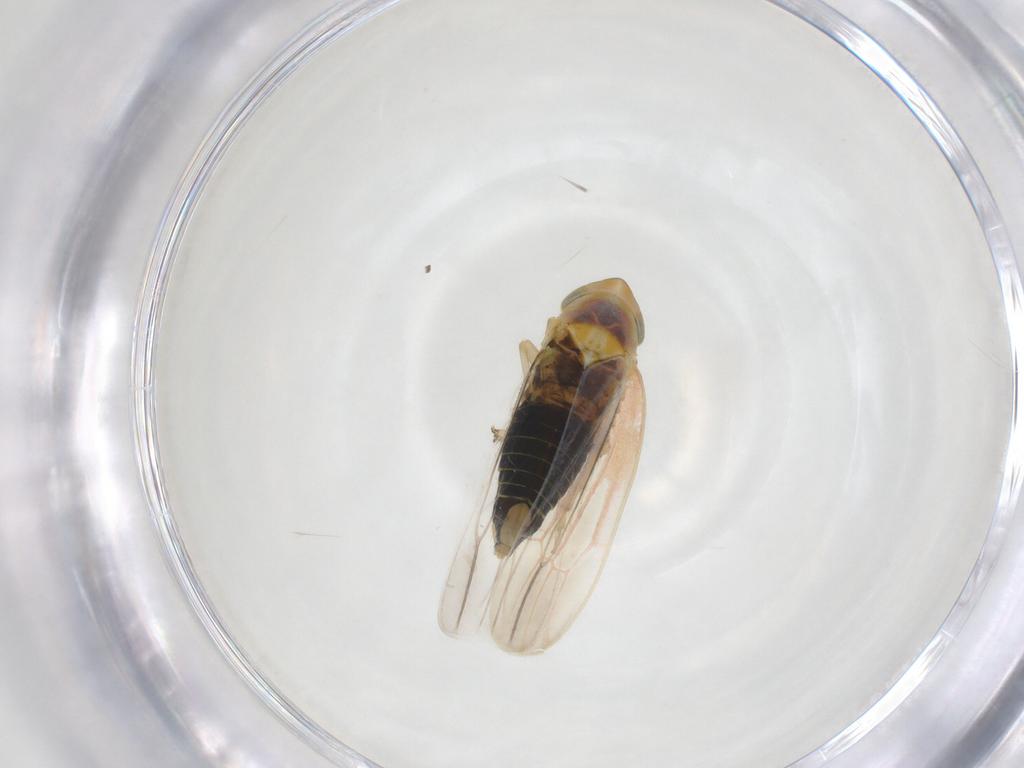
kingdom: Animalia
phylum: Arthropoda
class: Insecta
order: Hemiptera
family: Cicadellidae
